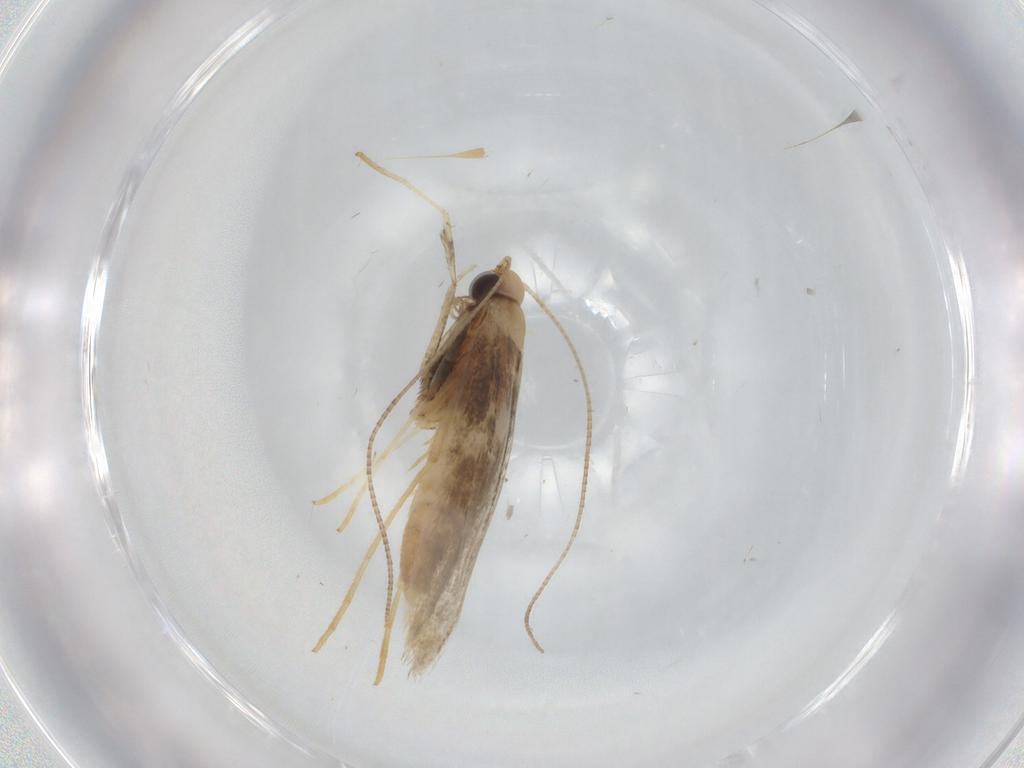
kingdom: Animalia
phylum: Arthropoda
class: Insecta
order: Lepidoptera
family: Gracillariidae
